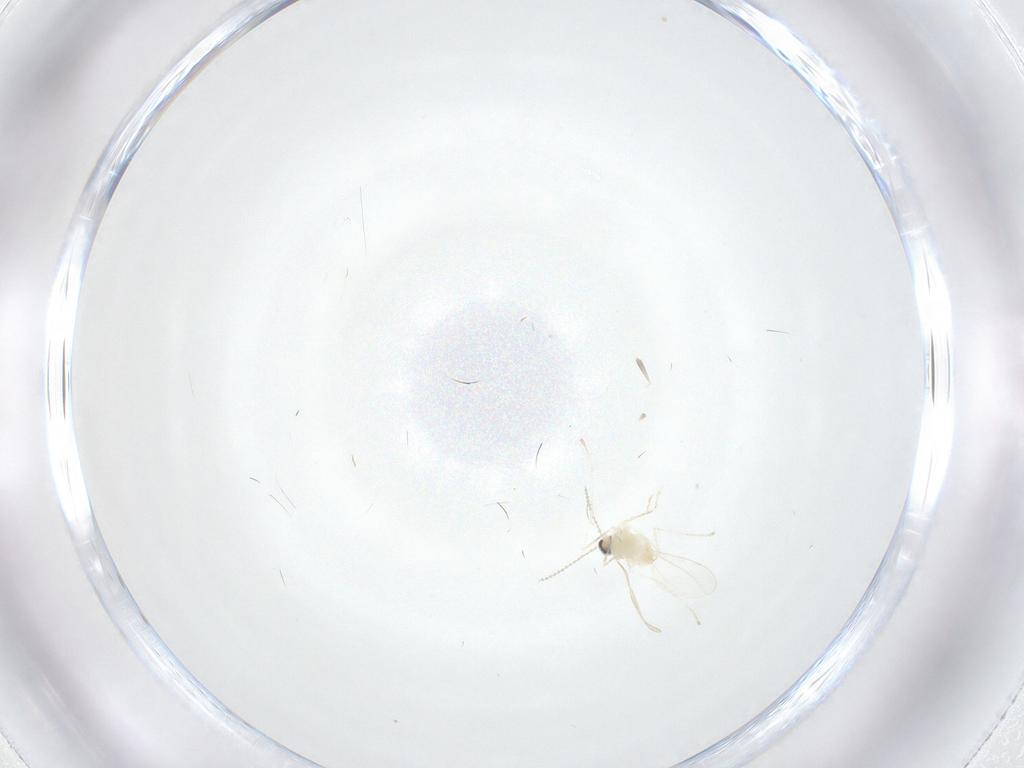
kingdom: Animalia
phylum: Arthropoda
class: Insecta
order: Diptera
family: Cecidomyiidae
